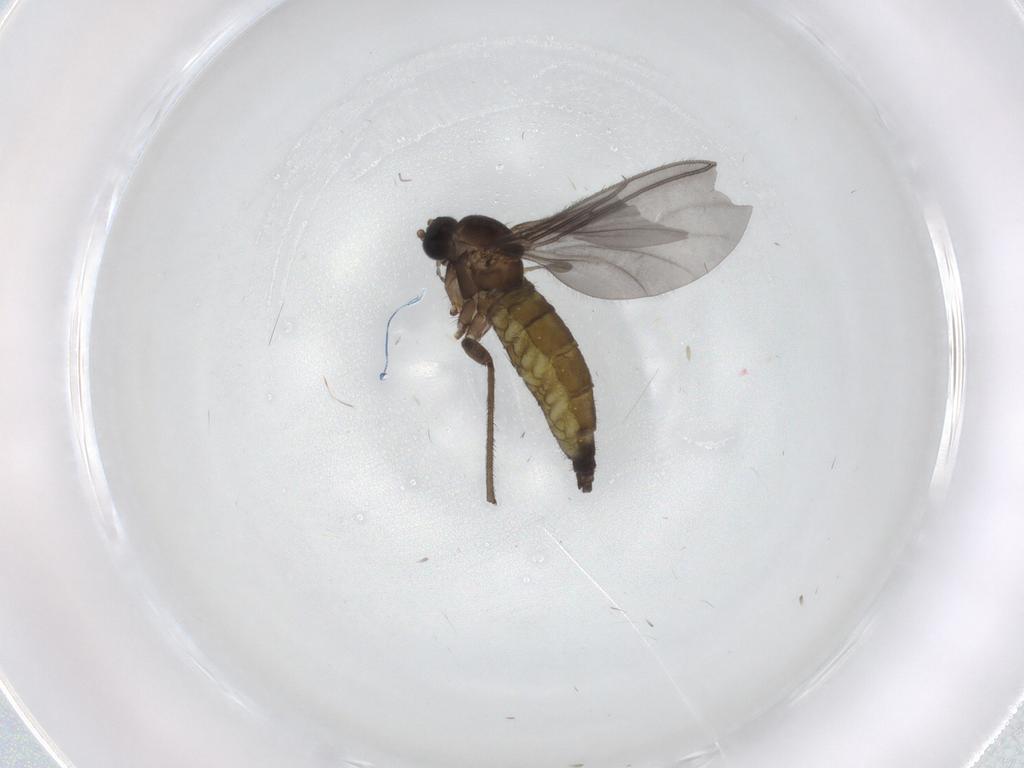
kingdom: Animalia
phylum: Arthropoda
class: Insecta
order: Diptera
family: Sciaridae
